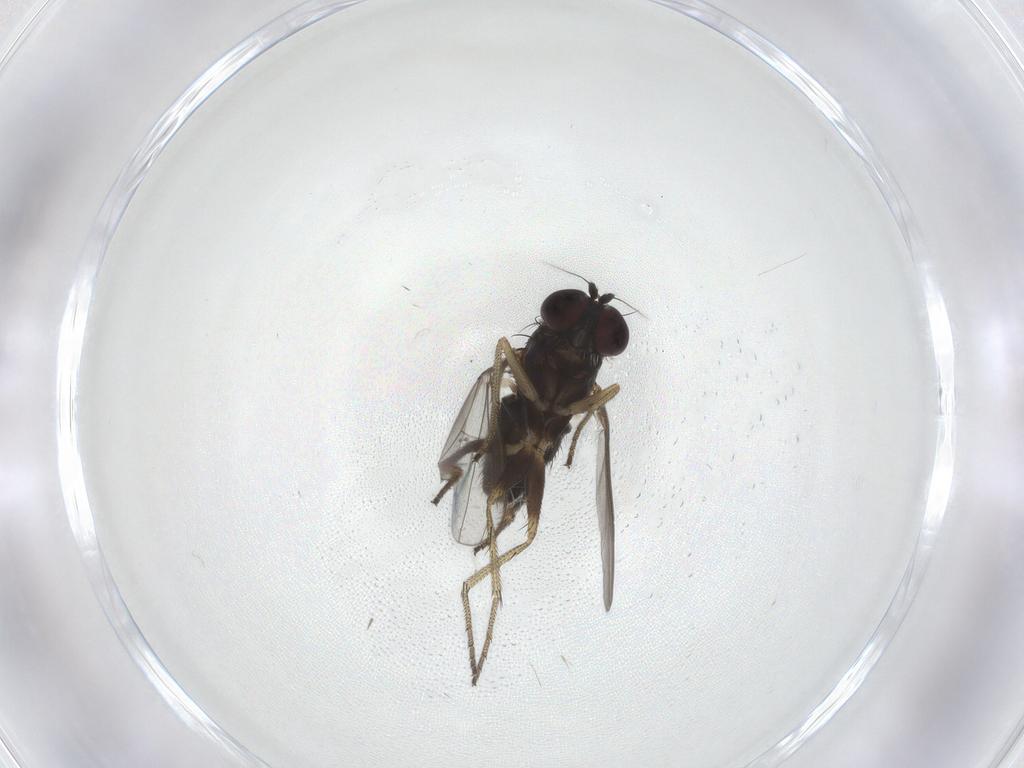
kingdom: Animalia
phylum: Arthropoda
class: Insecta
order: Diptera
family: Dolichopodidae
